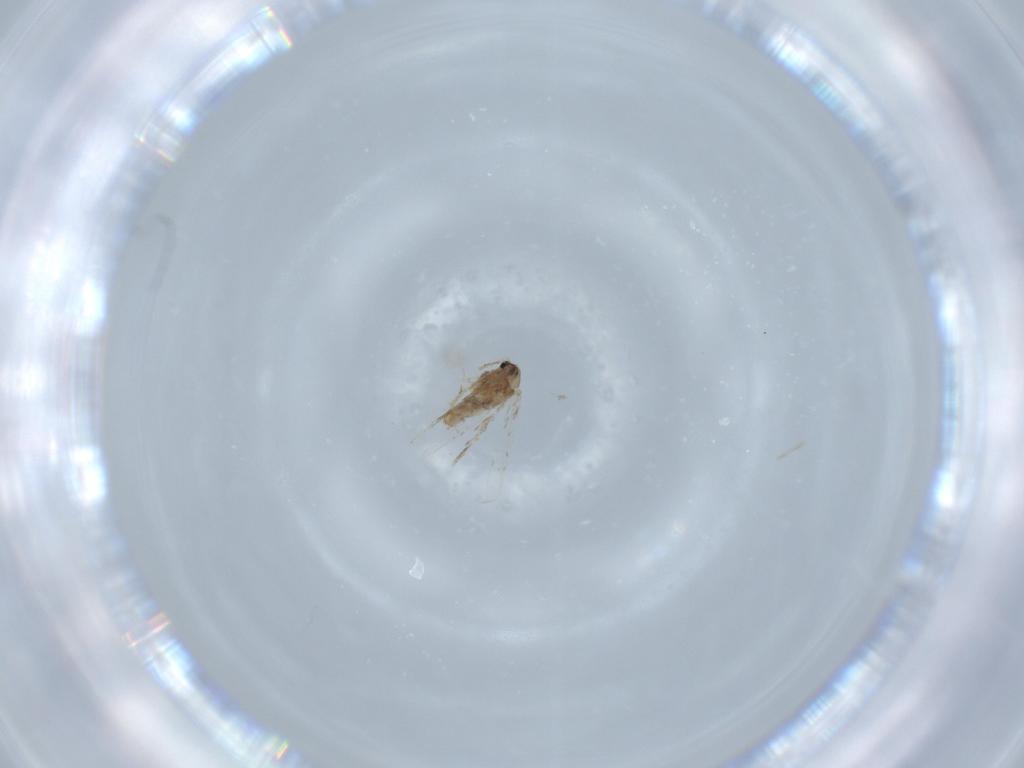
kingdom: Animalia
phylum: Arthropoda
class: Insecta
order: Lepidoptera
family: Nepticulidae
